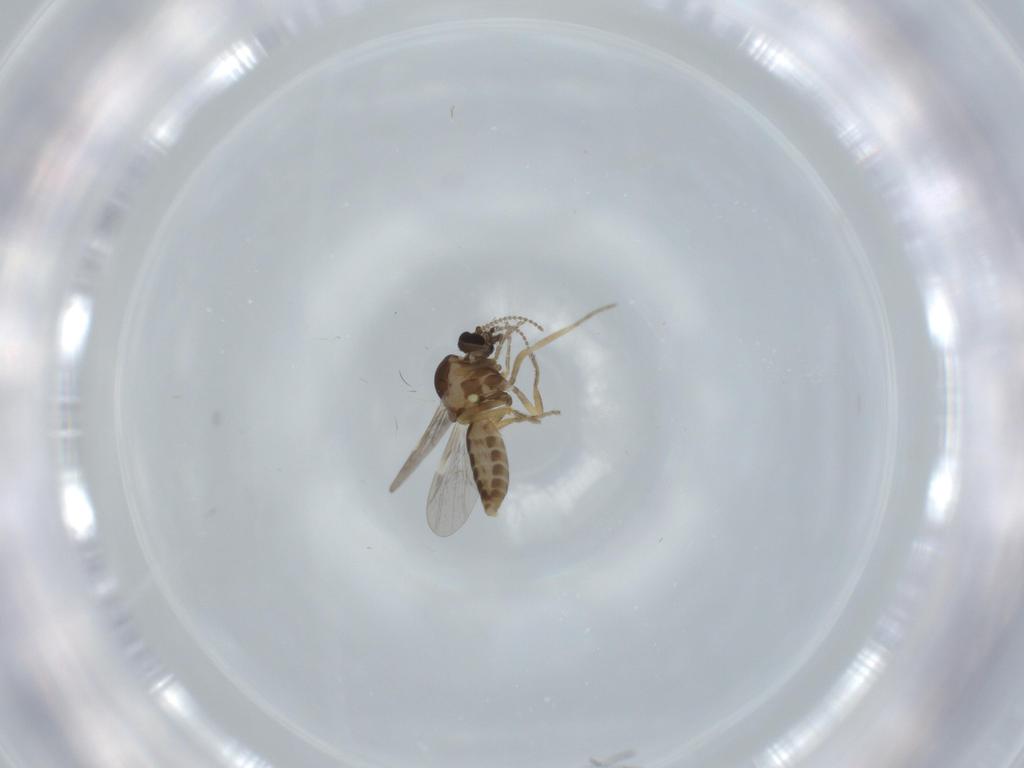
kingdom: Animalia
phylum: Arthropoda
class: Insecta
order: Diptera
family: Ceratopogonidae
